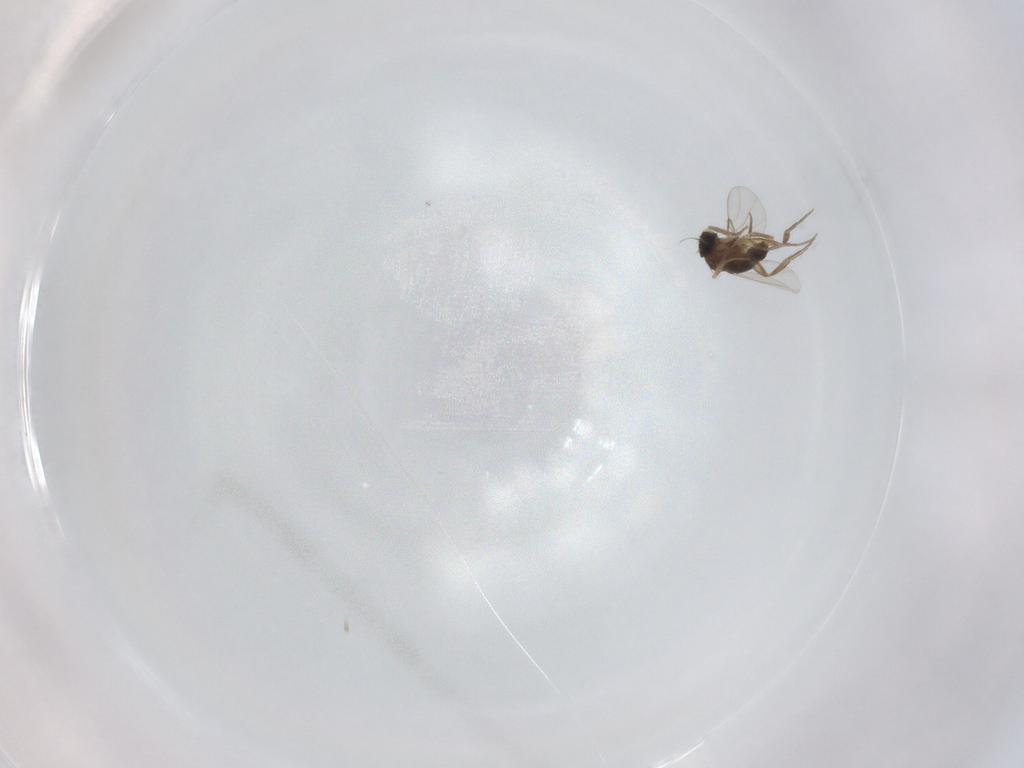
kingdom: Animalia
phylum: Arthropoda
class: Insecta
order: Diptera
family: Phoridae
